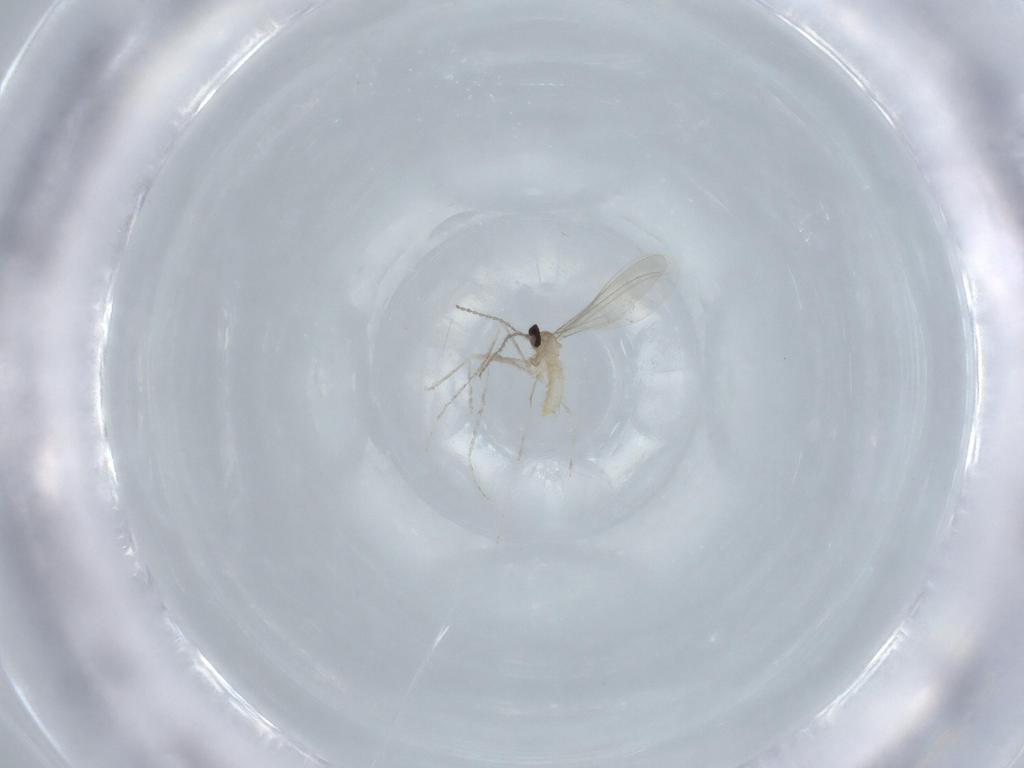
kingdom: Animalia
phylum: Arthropoda
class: Insecta
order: Diptera
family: Cecidomyiidae
